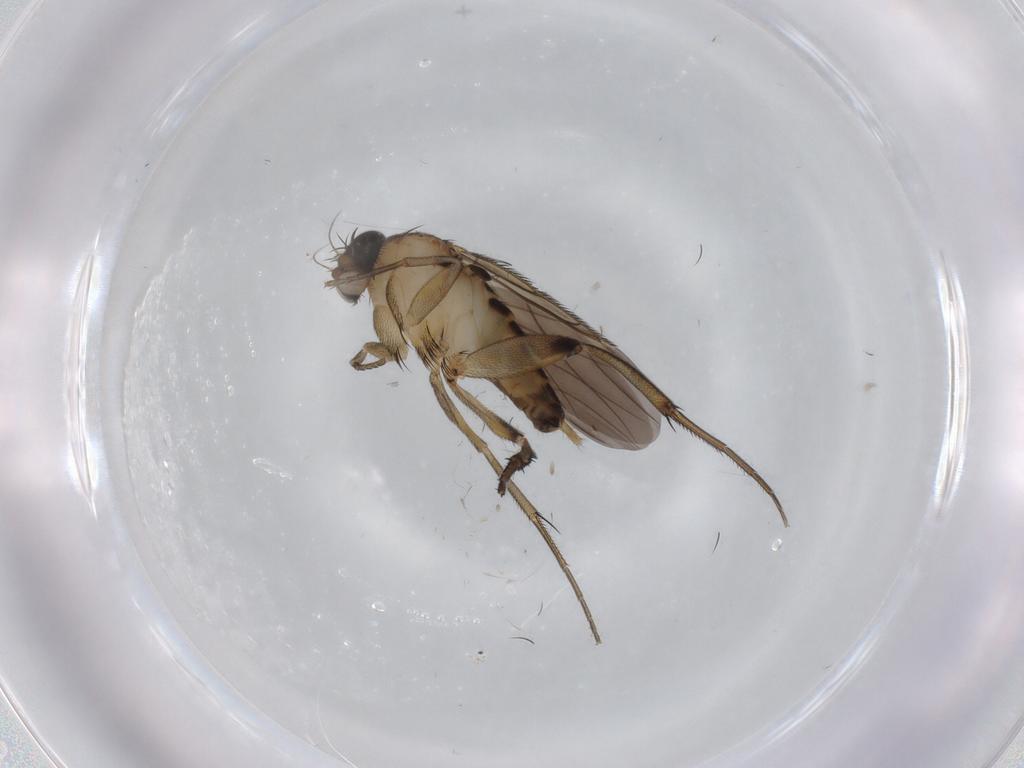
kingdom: Animalia
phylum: Arthropoda
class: Insecta
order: Diptera
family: Phoridae
